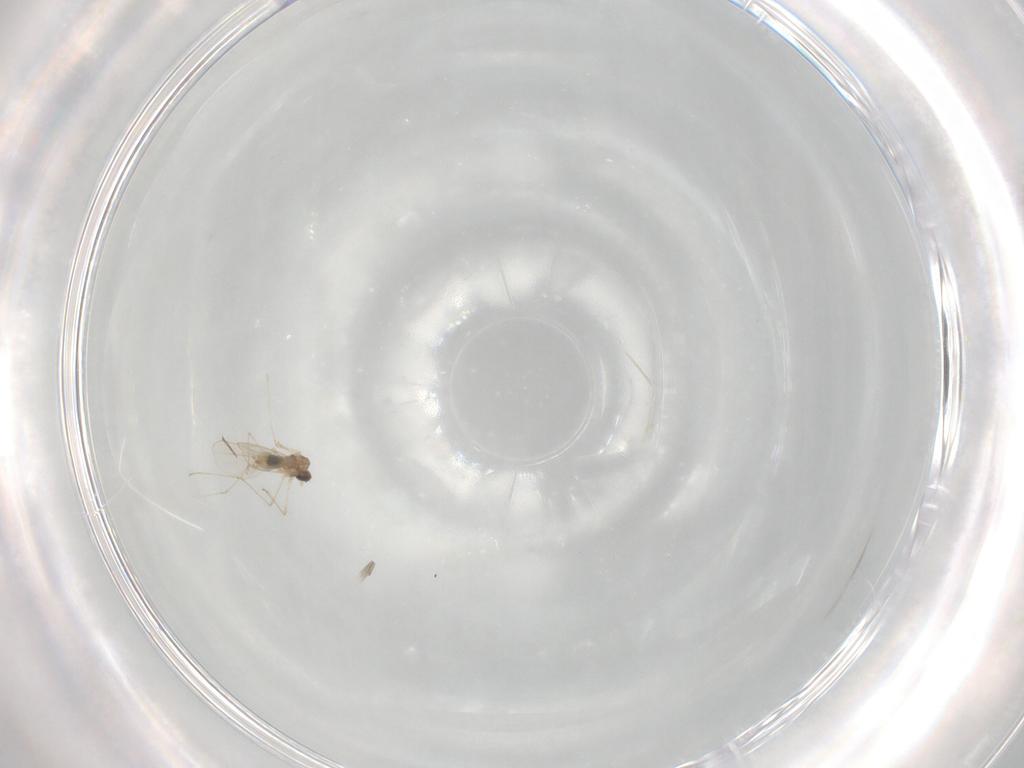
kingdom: Animalia
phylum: Arthropoda
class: Insecta
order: Diptera
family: Cecidomyiidae
